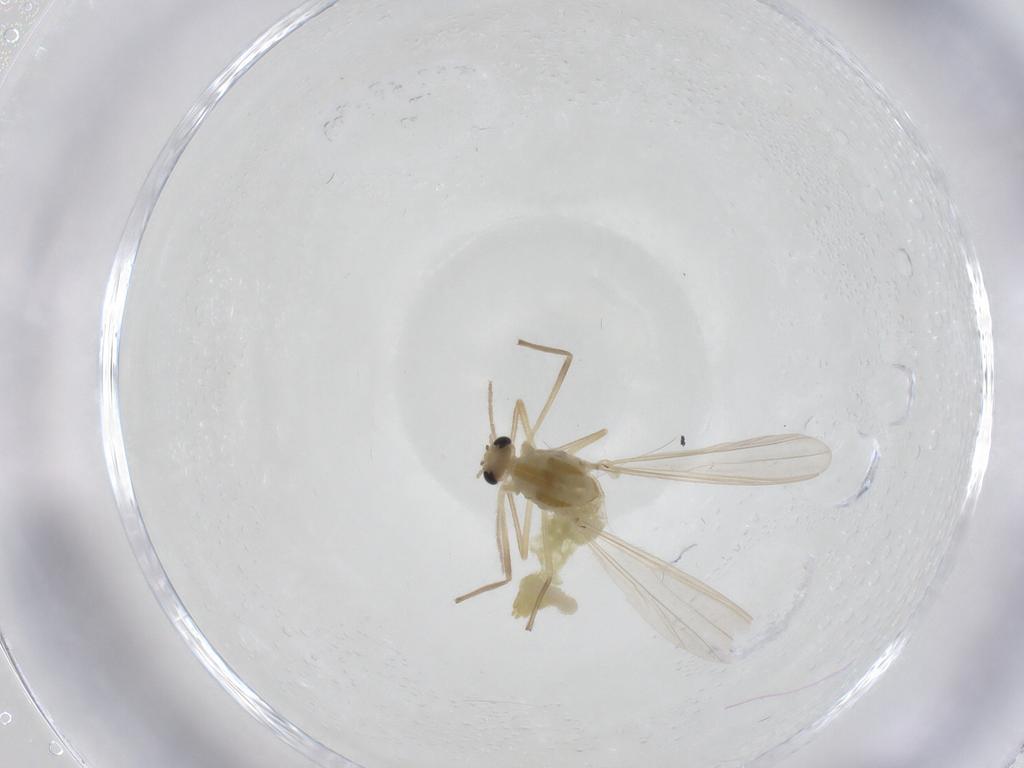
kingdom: Animalia
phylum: Arthropoda
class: Insecta
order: Diptera
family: Chironomidae
